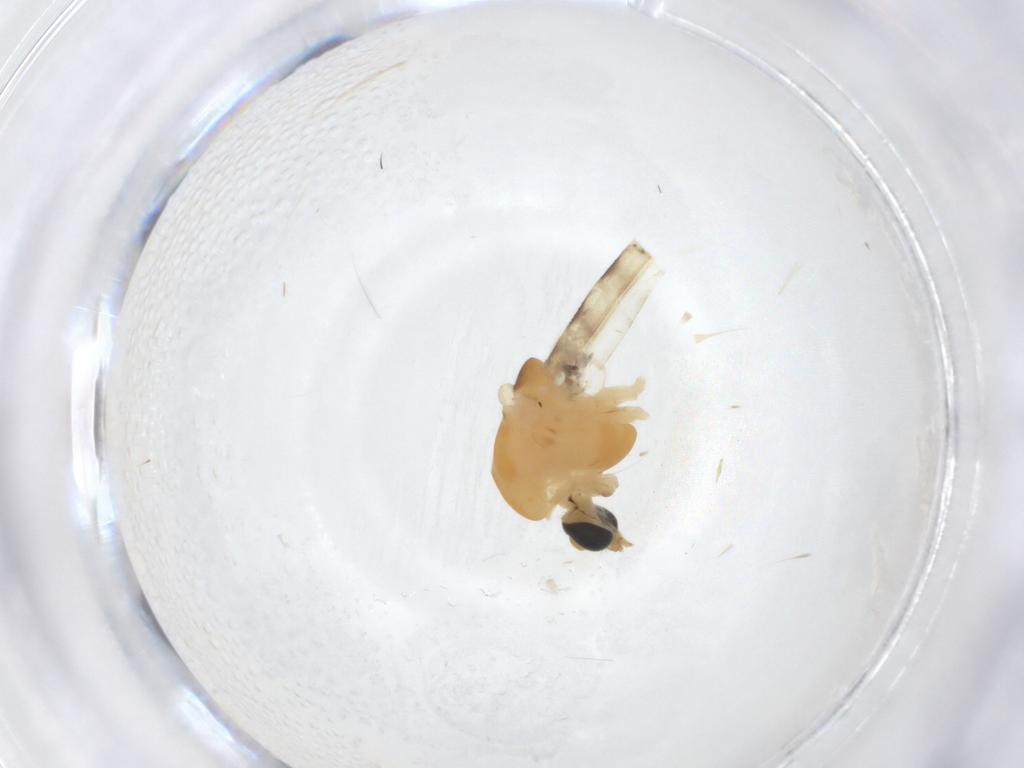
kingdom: Animalia
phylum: Arthropoda
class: Insecta
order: Diptera
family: Chironomidae
